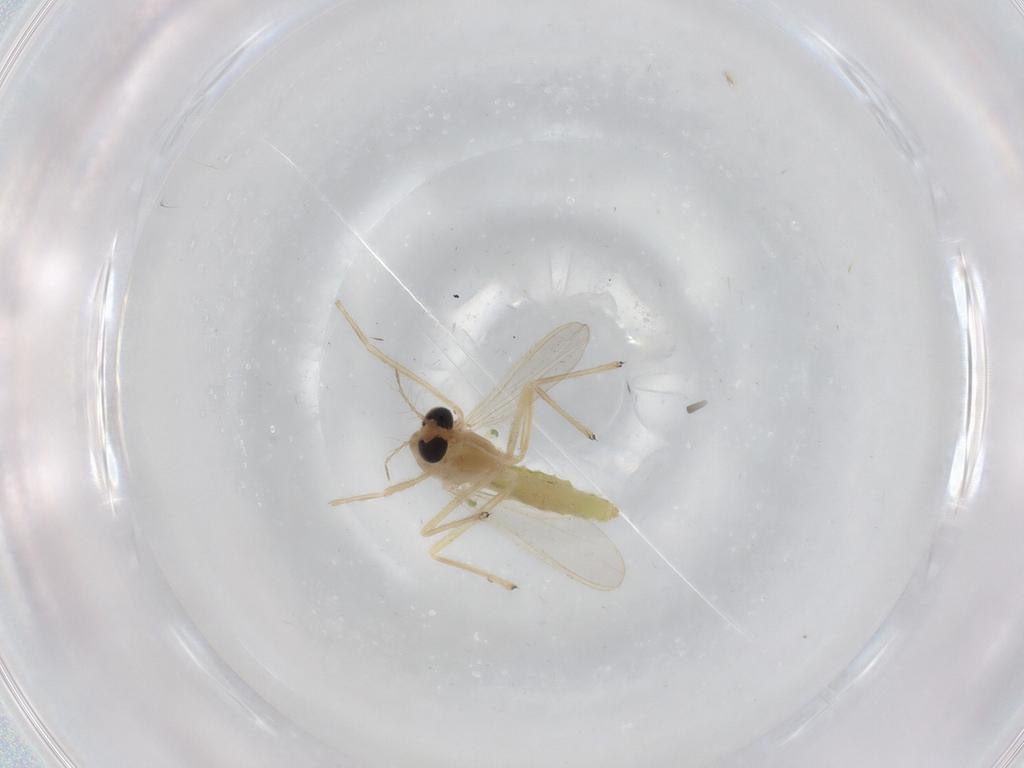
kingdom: Animalia
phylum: Arthropoda
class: Insecta
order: Diptera
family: Chironomidae
